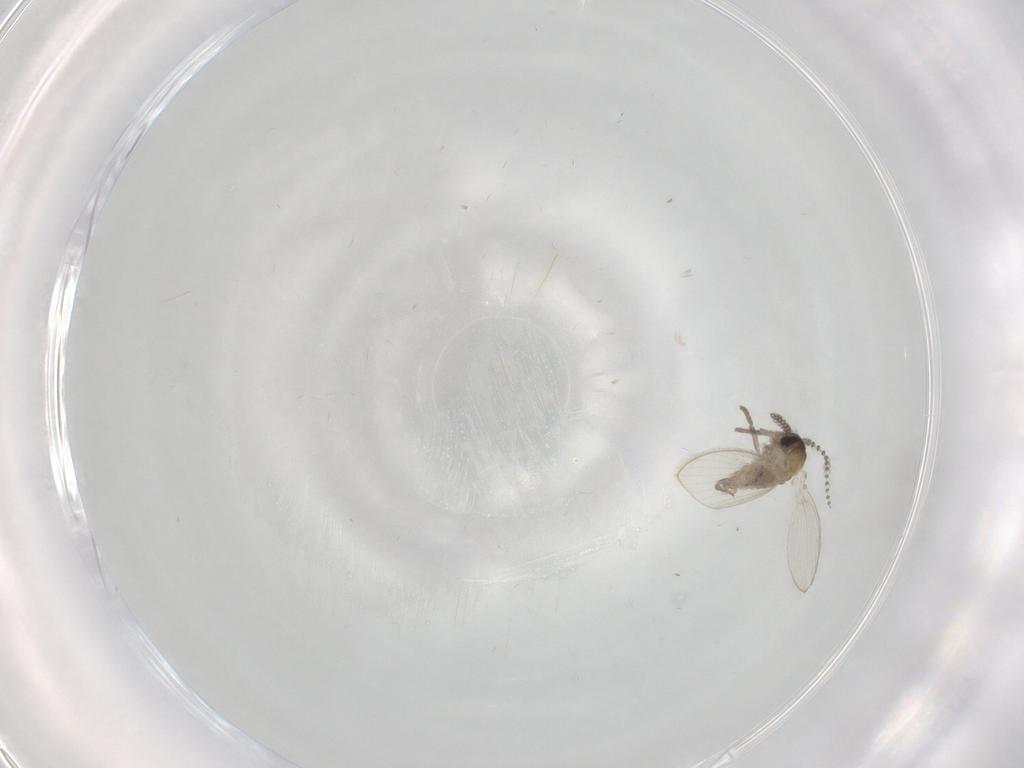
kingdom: Animalia
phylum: Arthropoda
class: Insecta
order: Diptera
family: Psychodidae
